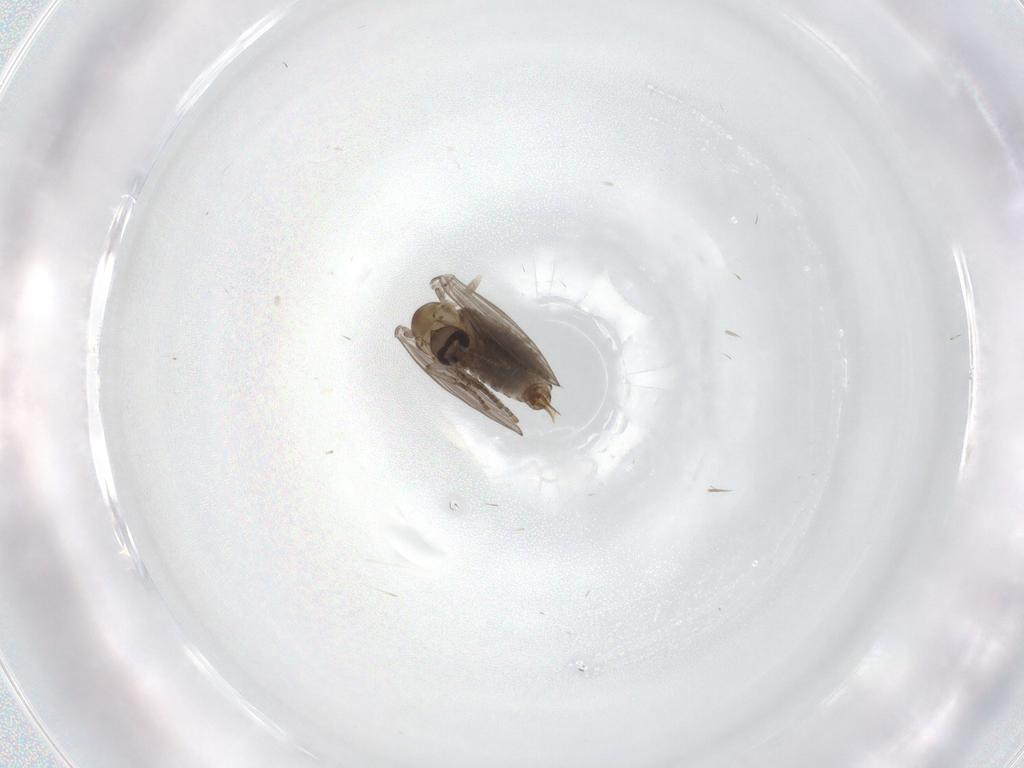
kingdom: Animalia
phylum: Arthropoda
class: Insecta
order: Diptera
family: Psychodidae
